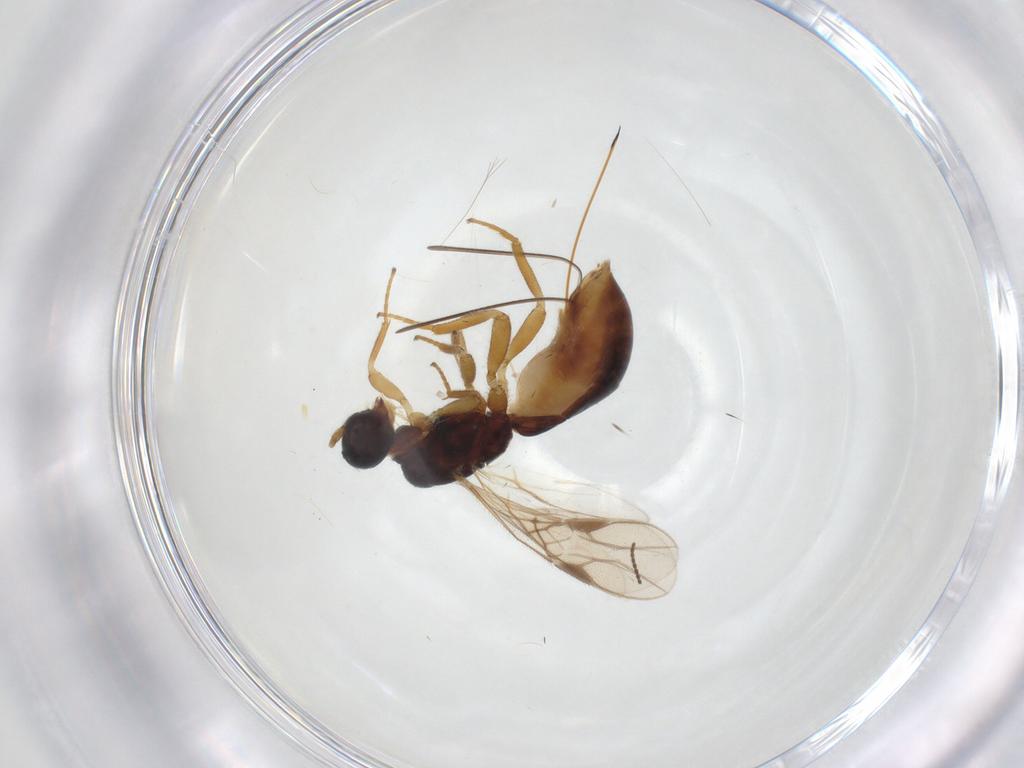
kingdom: Animalia
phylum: Arthropoda
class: Insecta
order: Hymenoptera
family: Braconidae
